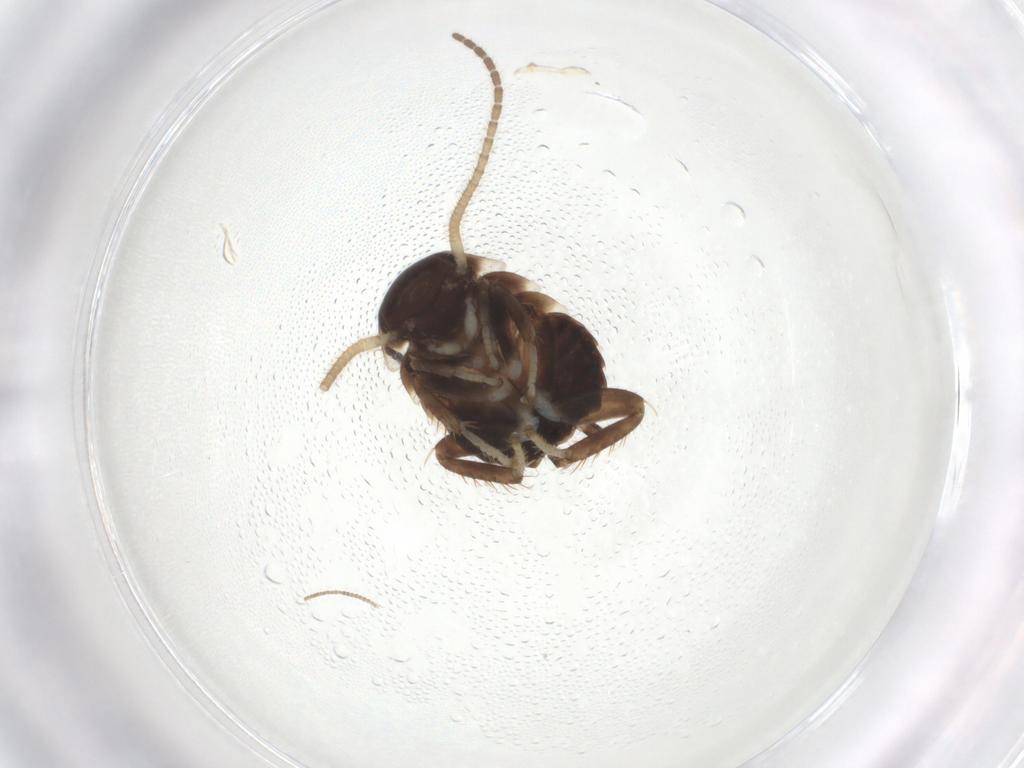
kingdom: Animalia
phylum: Arthropoda
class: Insecta
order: Blattodea
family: Blaberidae
